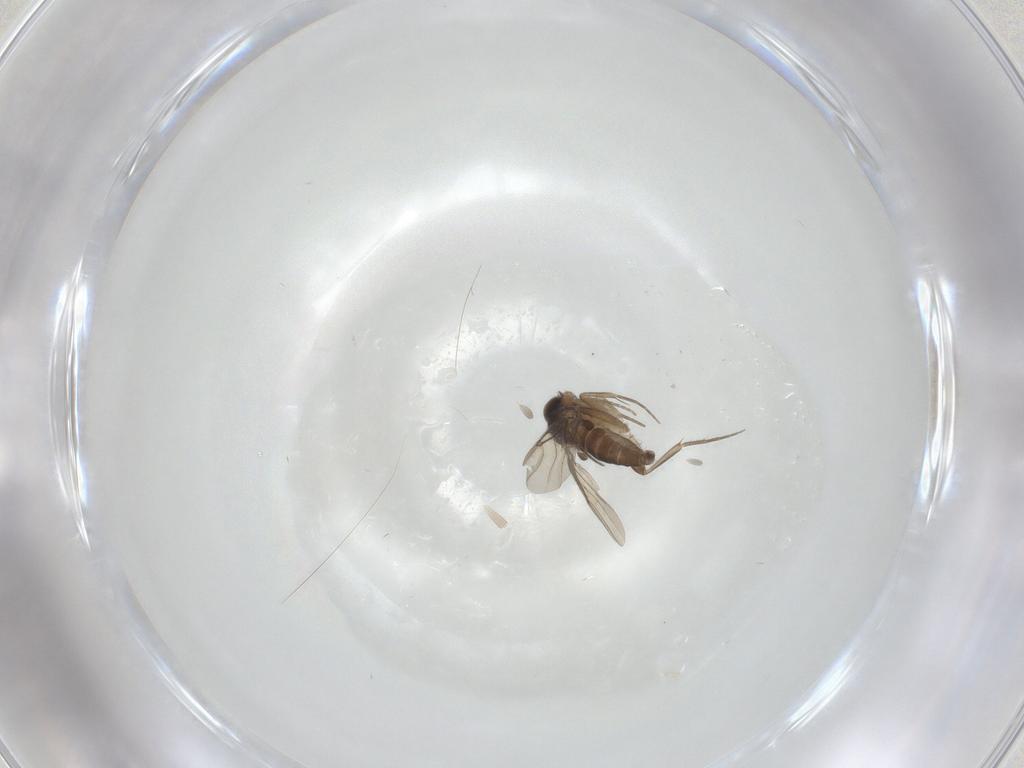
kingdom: Animalia
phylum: Arthropoda
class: Insecta
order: Diptera
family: Phoridae
